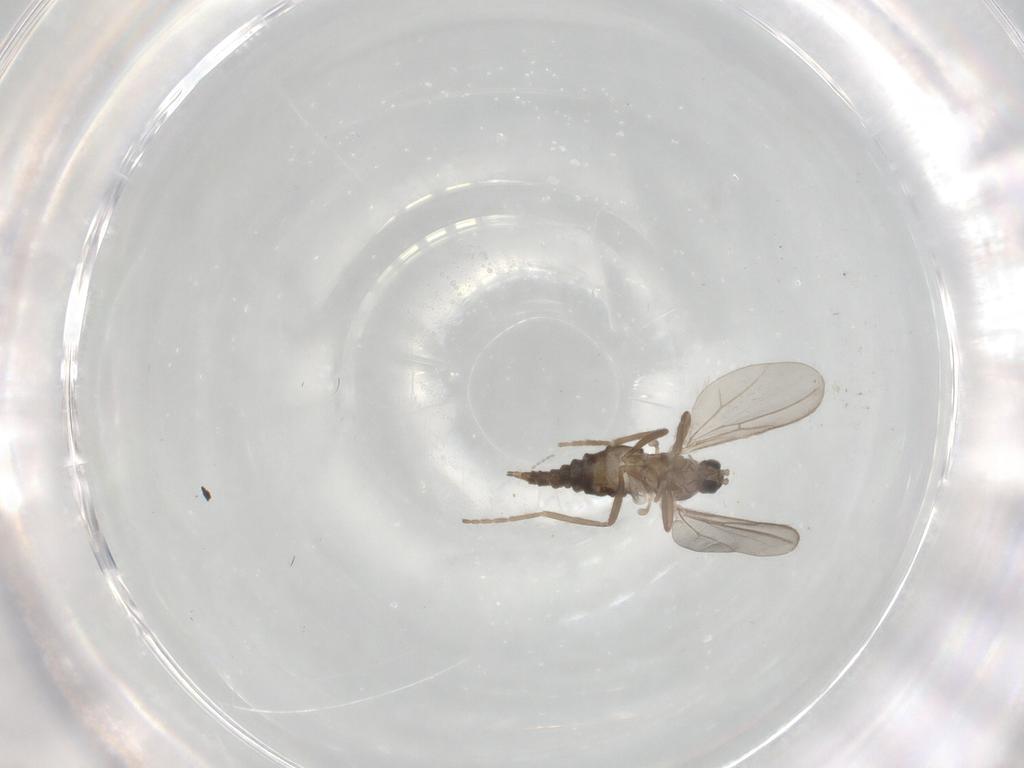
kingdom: Animalia
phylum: Arthropoda
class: Insecta
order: Diptera
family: Cecidomyiidae
